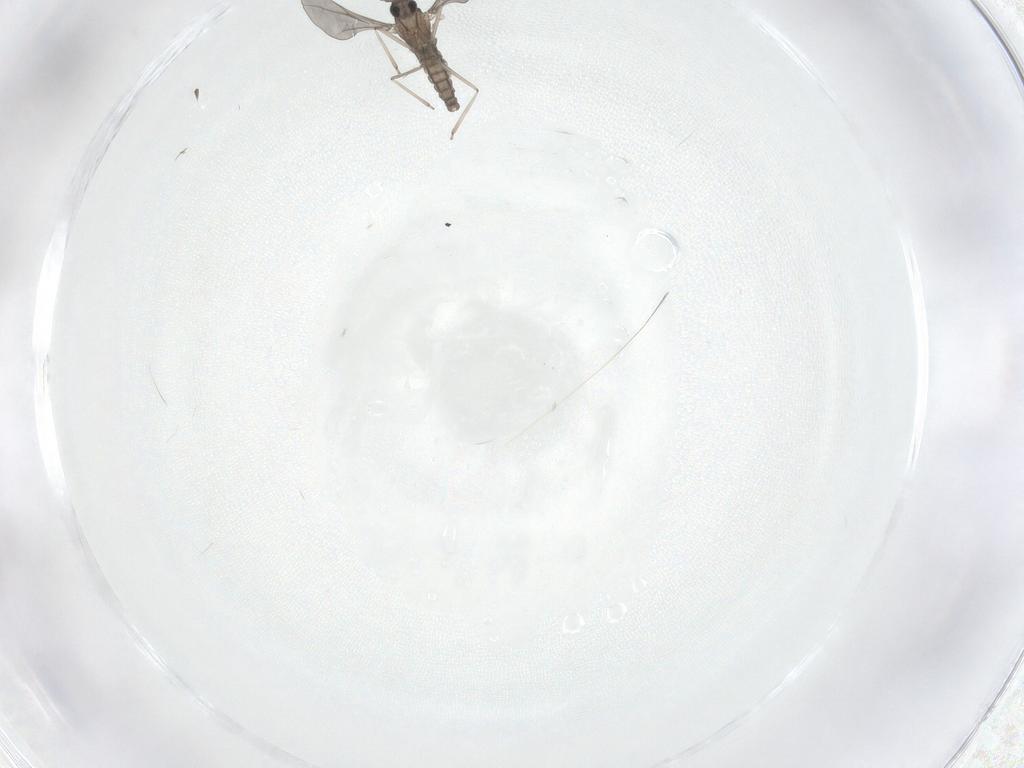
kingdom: Animalia
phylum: Arthropoda
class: Insecta
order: Diptera
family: Cecidomyiidae
